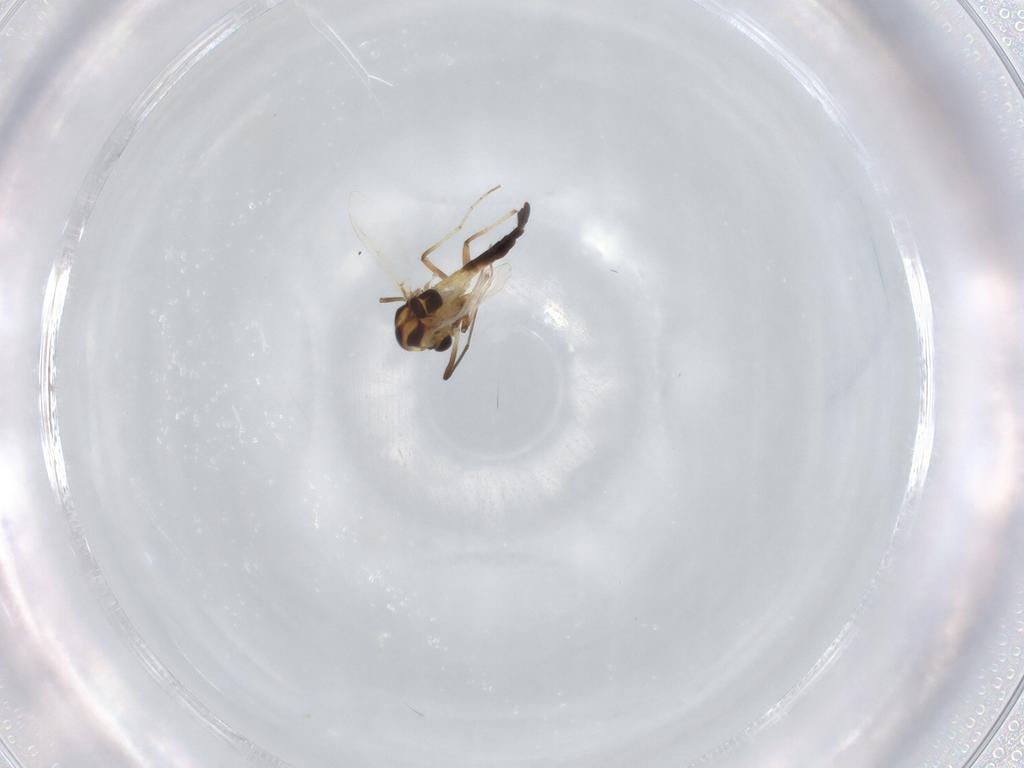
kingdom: Animalia
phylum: Arthropoda
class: Insecta
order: Diptera
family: Chironomidae
